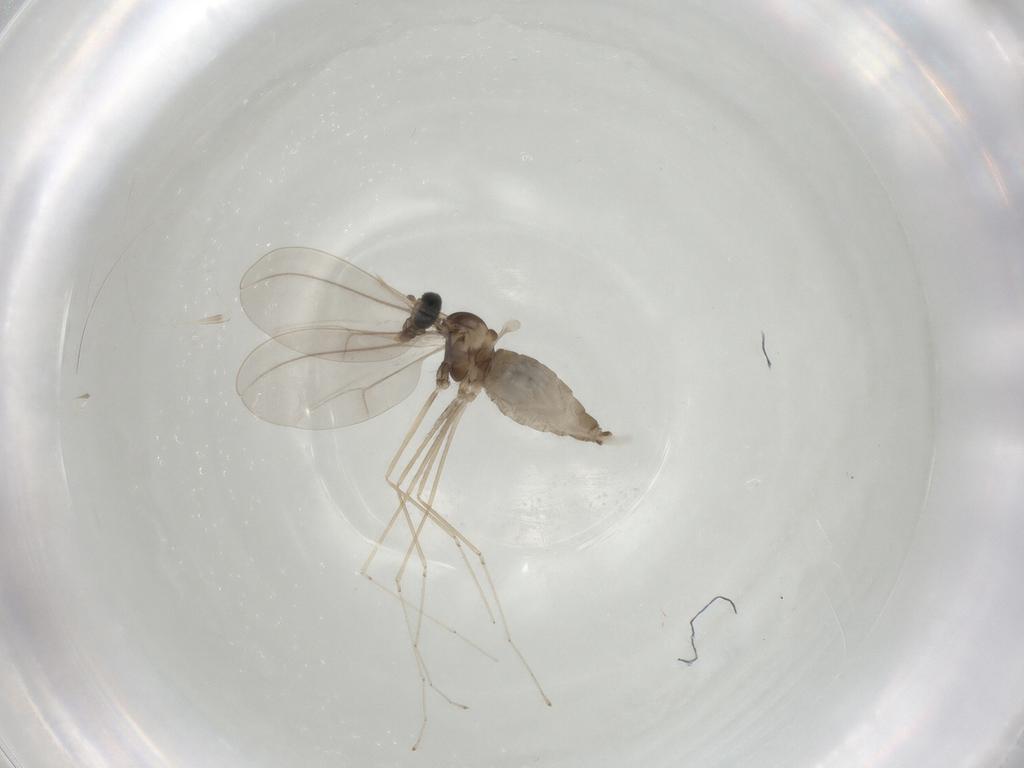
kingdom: Animalia
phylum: Arthropoda
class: Insecta
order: Diptera
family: Cecidomyiidae
